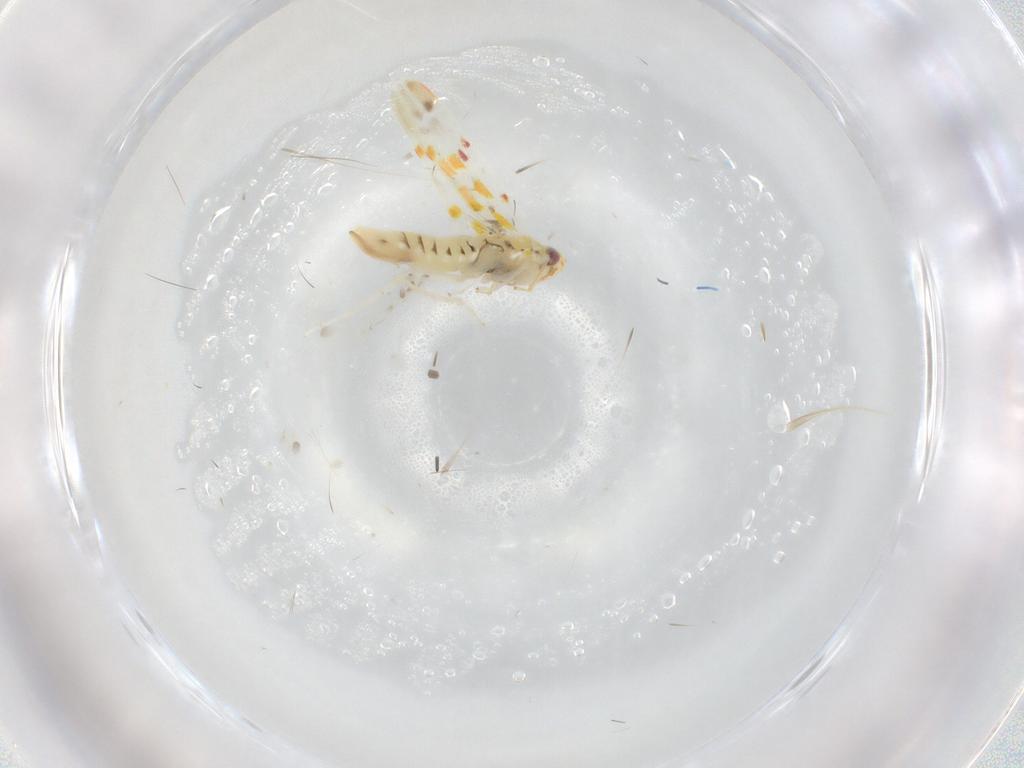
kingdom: Animalia
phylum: Arthropoda
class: Insecta
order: Hemiptera
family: Cicadellidae
